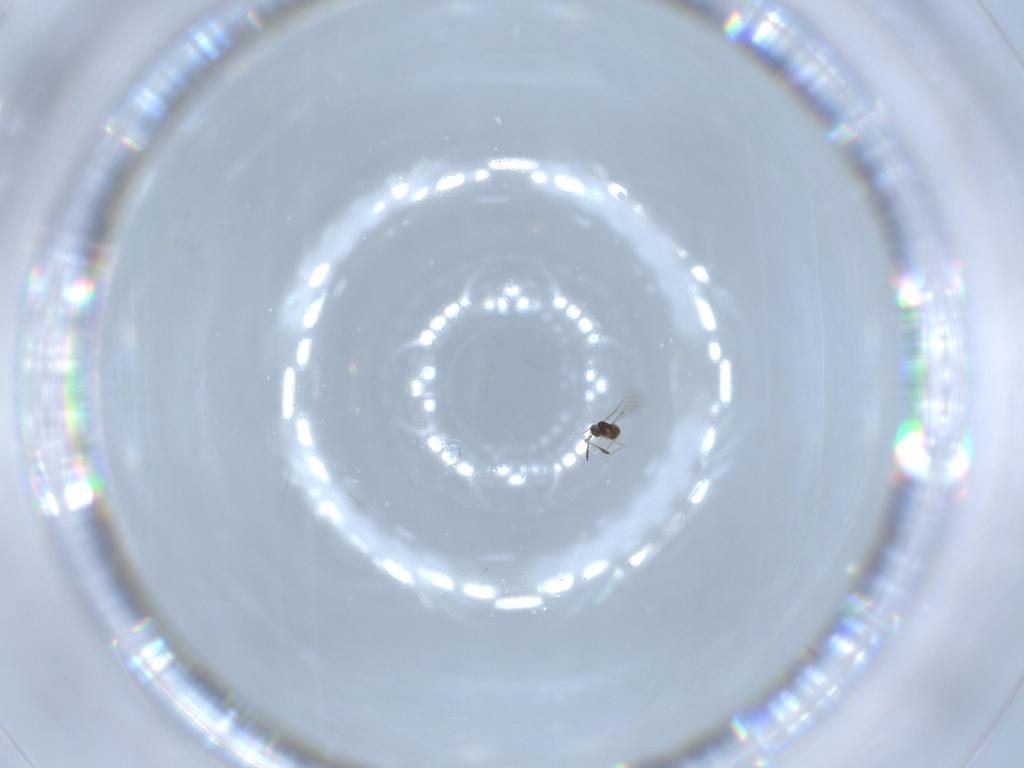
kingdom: Animalia
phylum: Arthropoda
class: Insecta
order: Hymenoptera
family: Mymaridae
